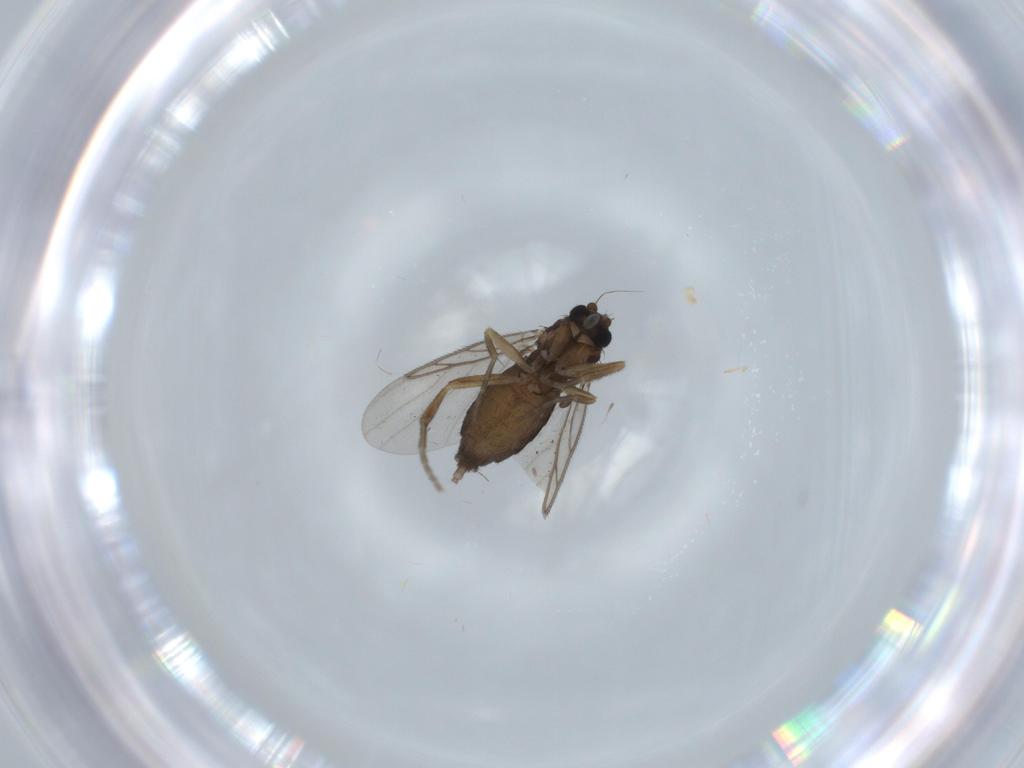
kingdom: Animalia
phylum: Arthropoda
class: Insecta
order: Diptera
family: Phoridae
